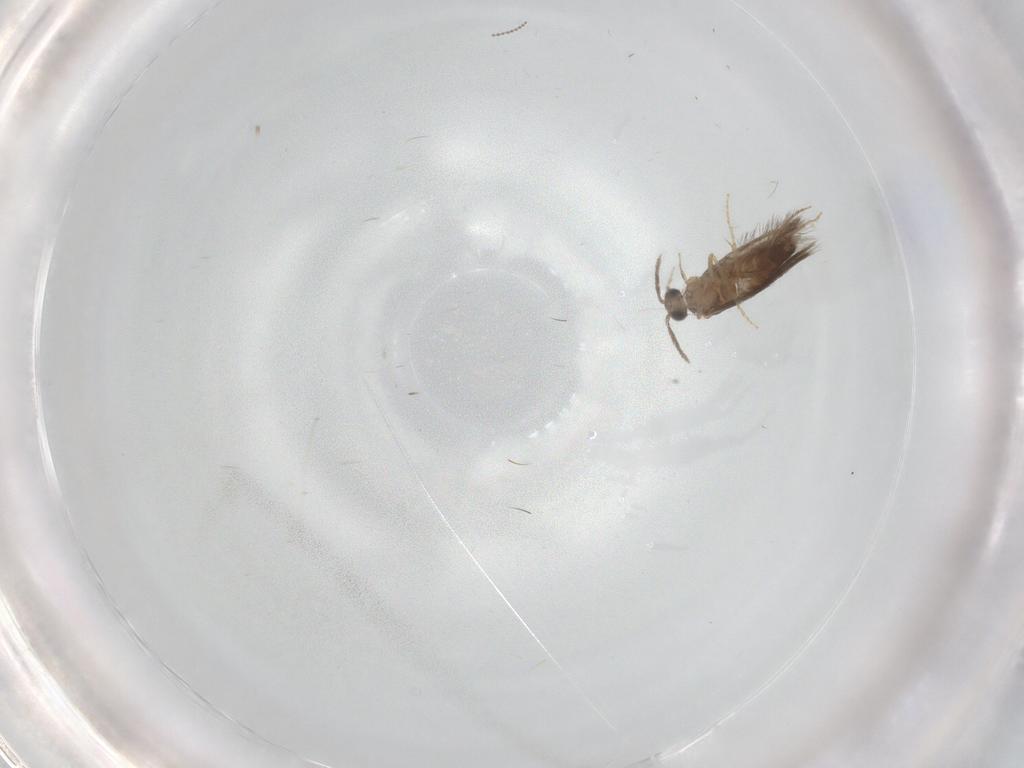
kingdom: Animalia
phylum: Arthropoda
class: Insecta
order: Trichoptera
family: Hydroptilidae
